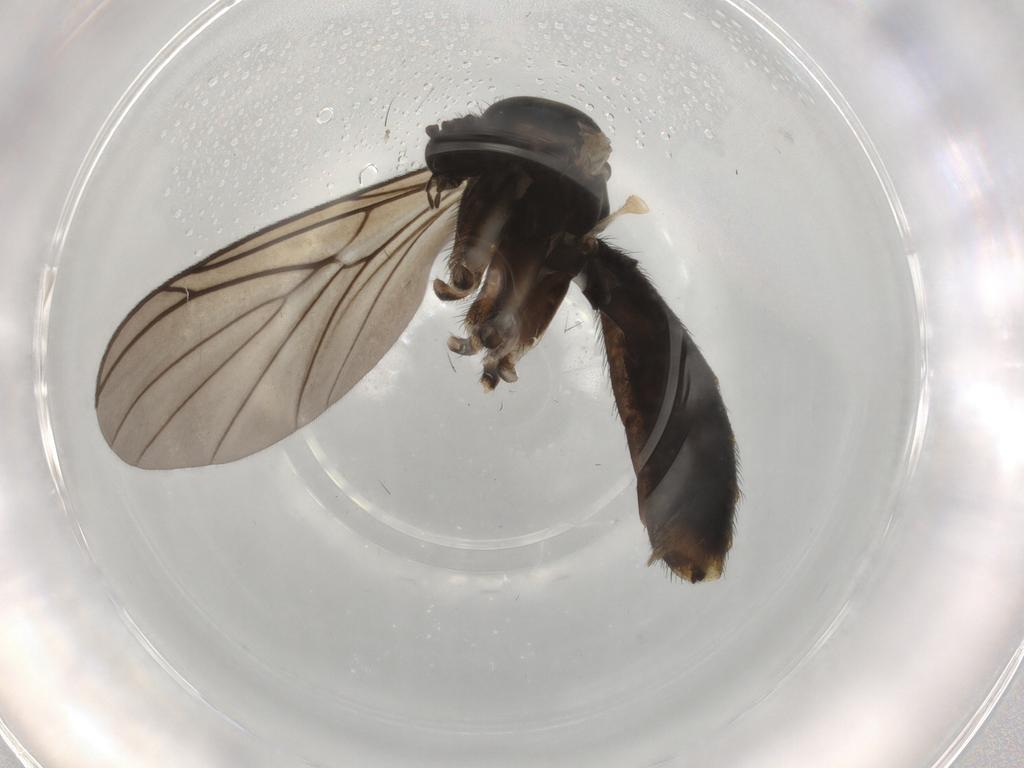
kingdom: Animalia
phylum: Arthropoda
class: Insecta
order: Diptera
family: Keroplatidae
